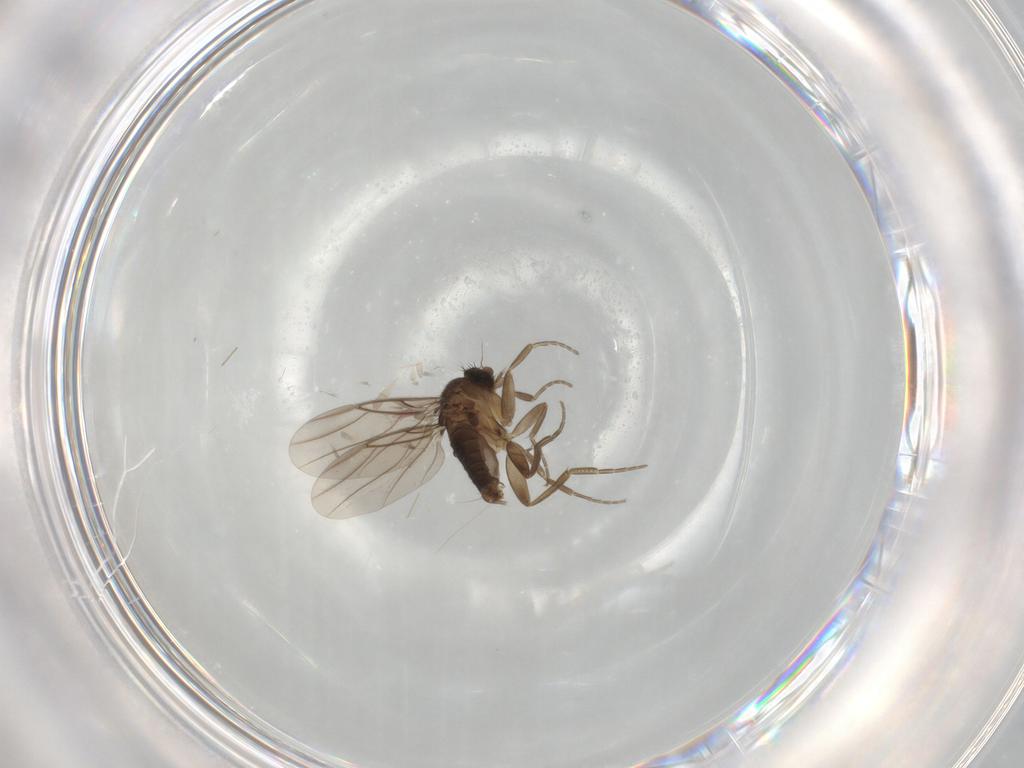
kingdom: Animalia
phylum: Arthropoda
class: Insecta
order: Diptera
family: Phoridae
